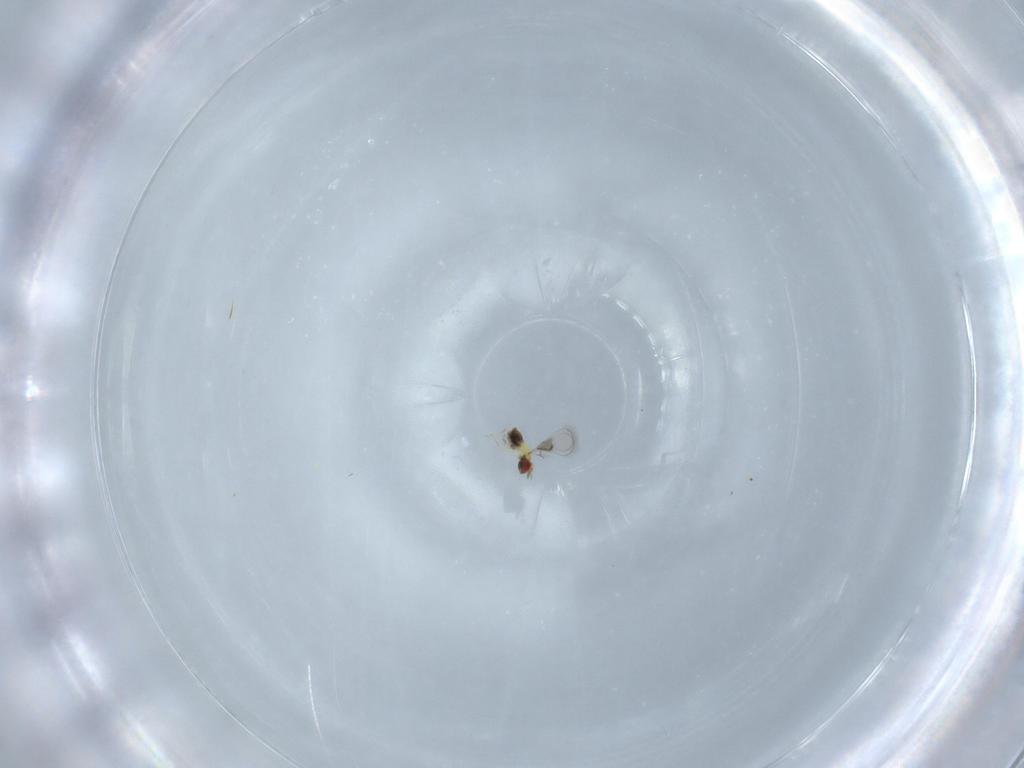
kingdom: Animalia
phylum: Arthropoda
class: Insecta
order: Hymenoptera
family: Trichogrammatidae
